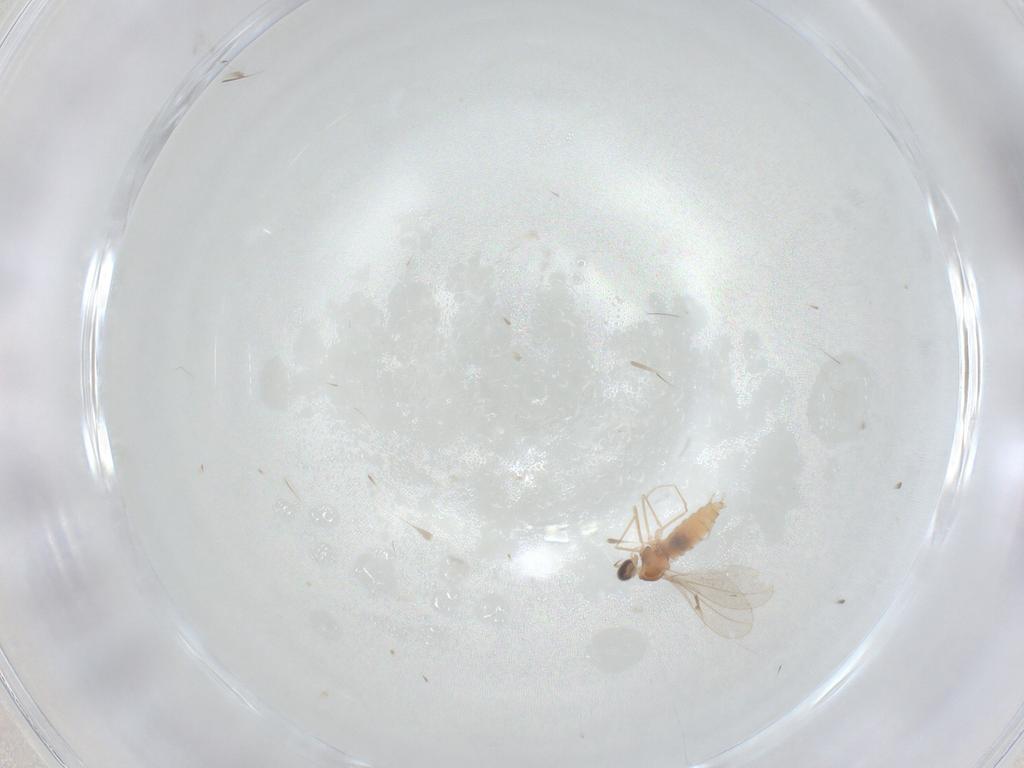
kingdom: Animalia
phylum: Arthropoda
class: Insecta
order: Diptera
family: Cecidomyiidae
